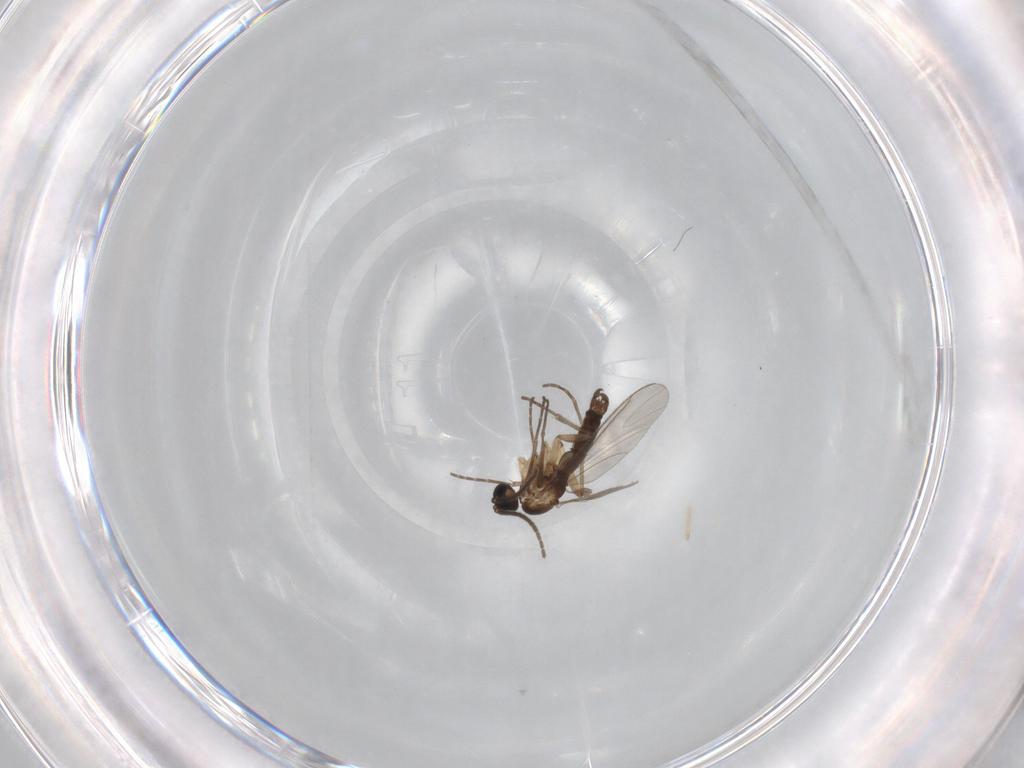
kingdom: Animalia
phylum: Arthropoda
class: Insecta
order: Diptera
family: Sciaridae
